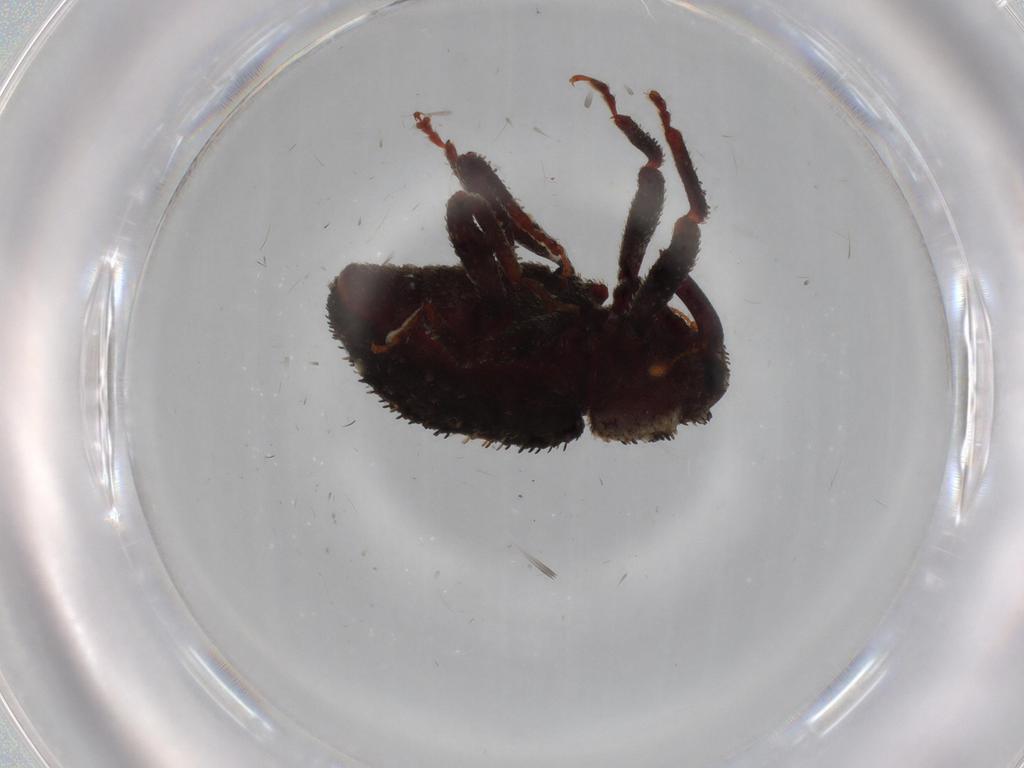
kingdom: Animalia
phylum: Arthropoda
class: Insecta
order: Coleoptera
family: Curculionidae
